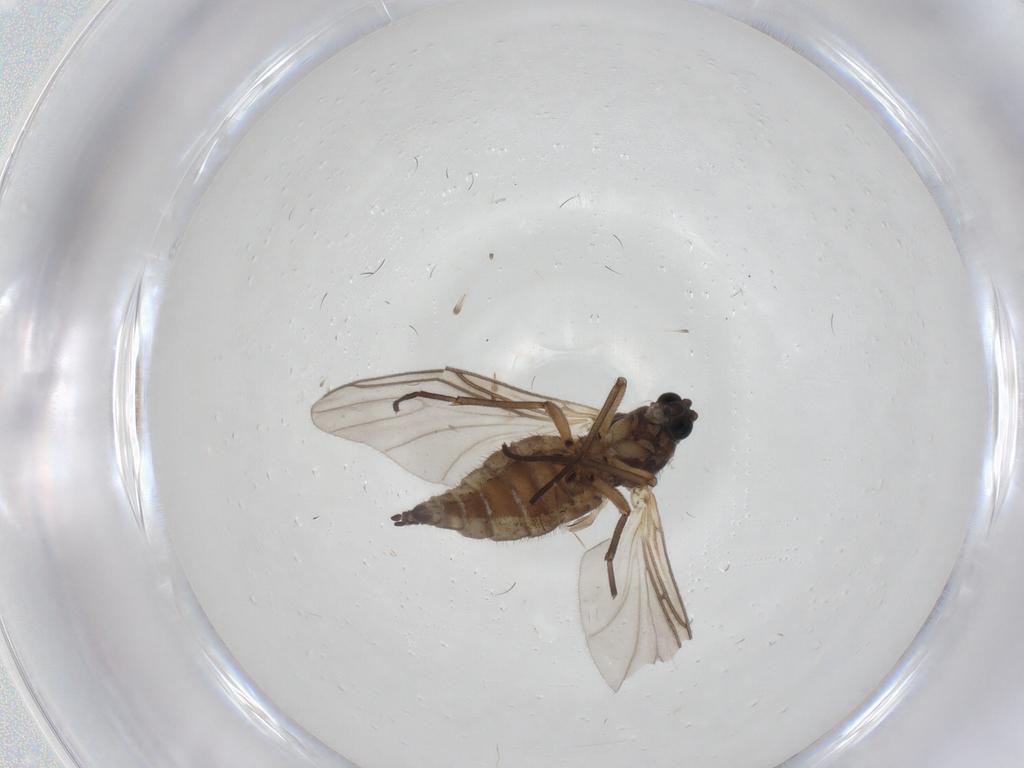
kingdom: Animalia
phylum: Arthropoda
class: Insecta
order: Diptera
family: Sciaridae
